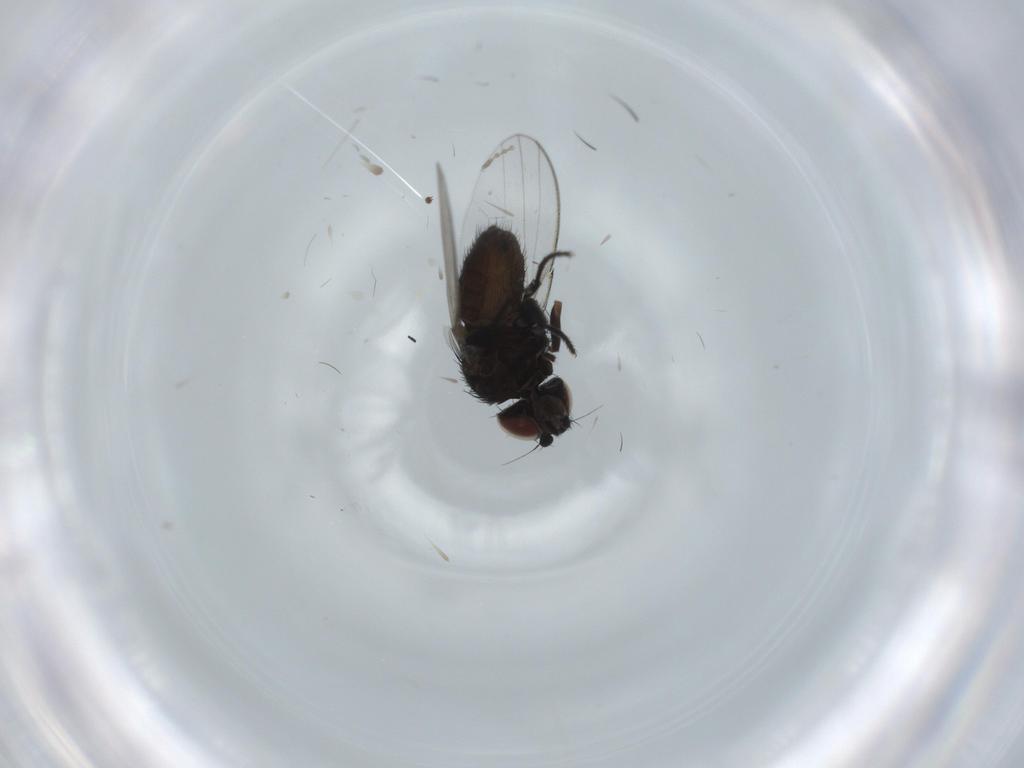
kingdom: Animalia
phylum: Arthropoda
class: Insecta
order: Diptera
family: Milichiidae
